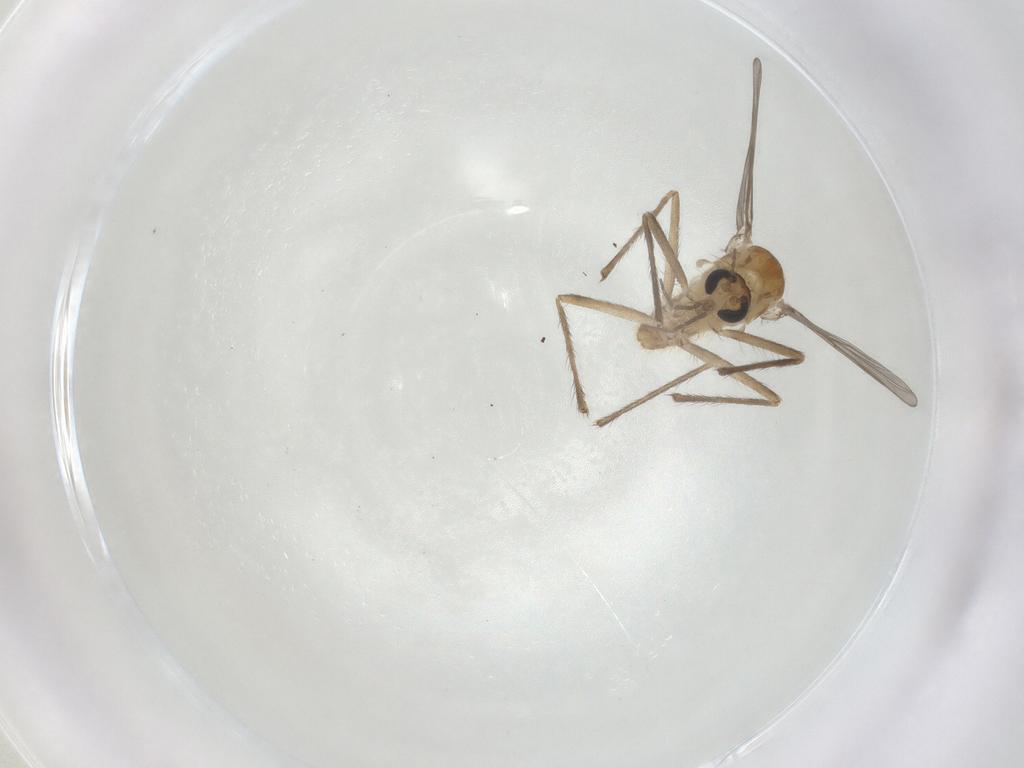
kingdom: Animalia
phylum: Arthropoda
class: Insecta
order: Diptera
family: Chironomidae
